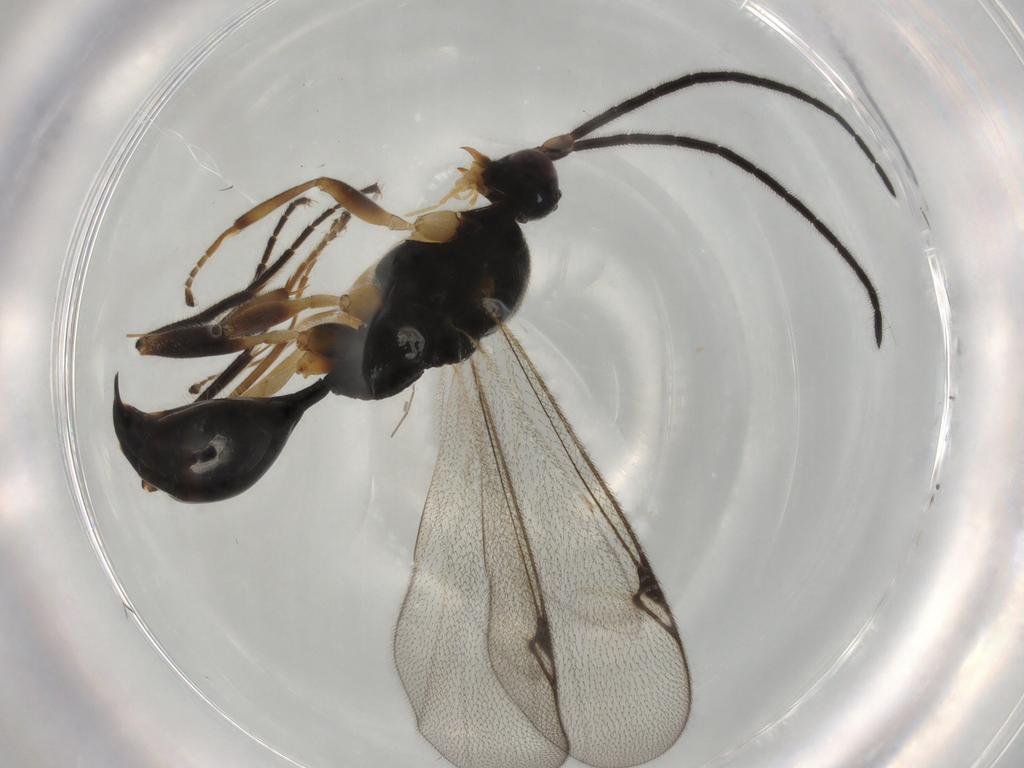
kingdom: Animalia
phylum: Arthropoda
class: Insecta
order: Hymenoptera
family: Proctotrupidae
